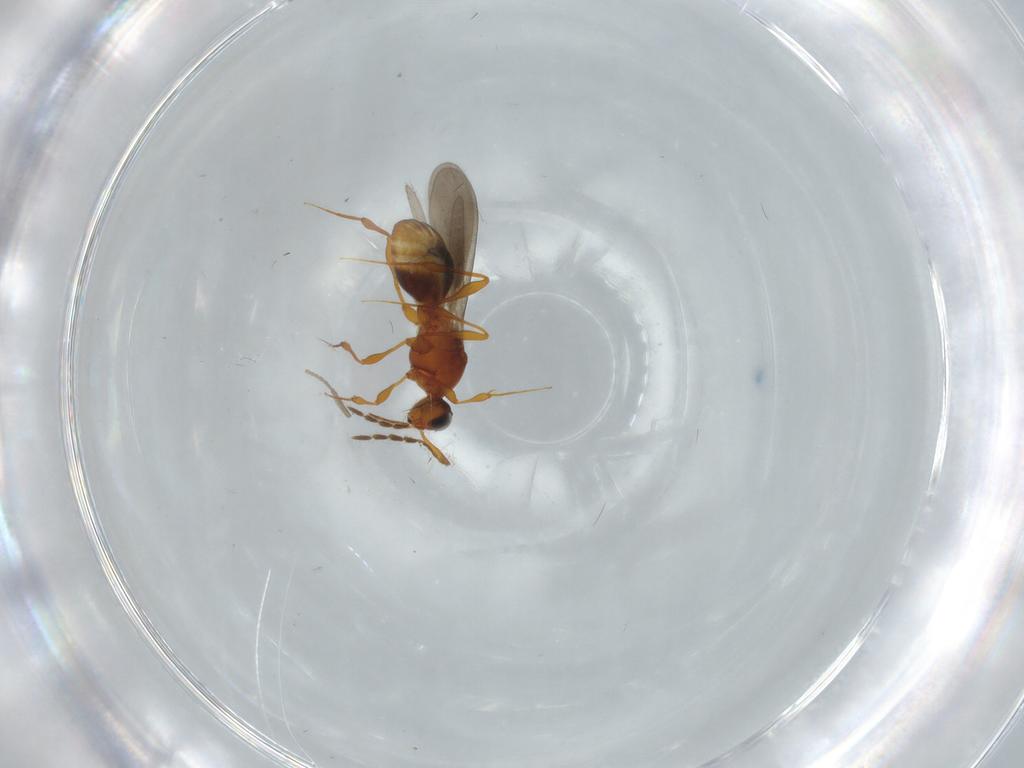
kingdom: Animalia
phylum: Arthropoda
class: Insecta
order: Hymenoptera
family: Platygastridae
